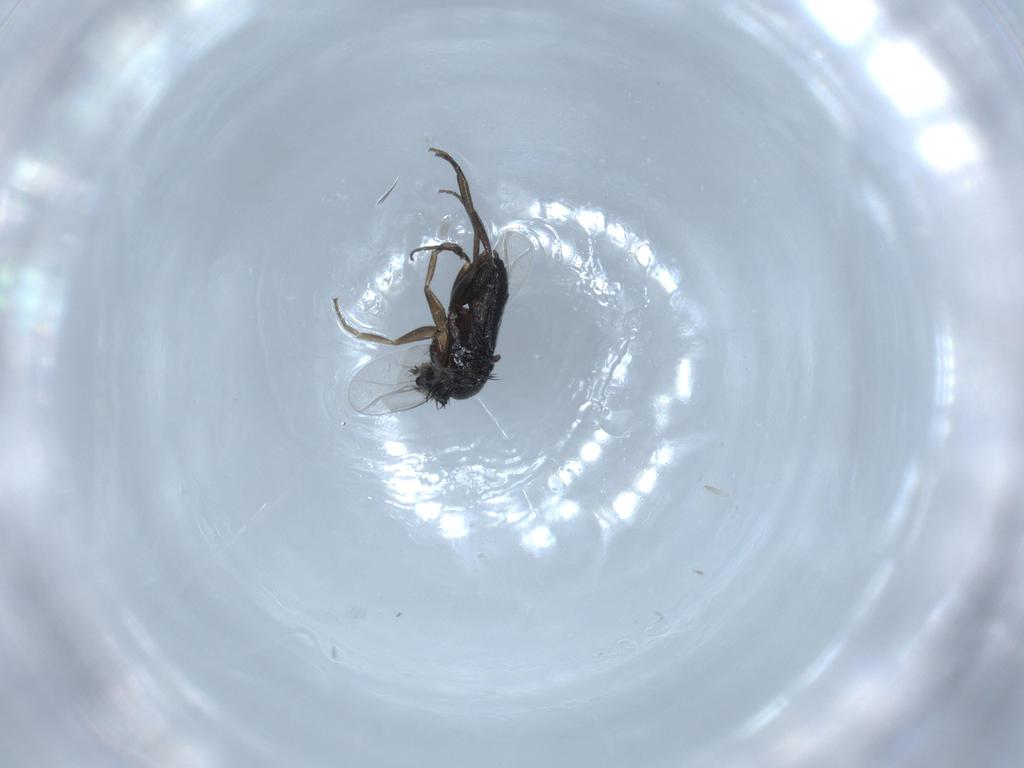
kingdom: Animalia
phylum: Arthropoda
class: Insecta
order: Diptera
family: Phoridae
